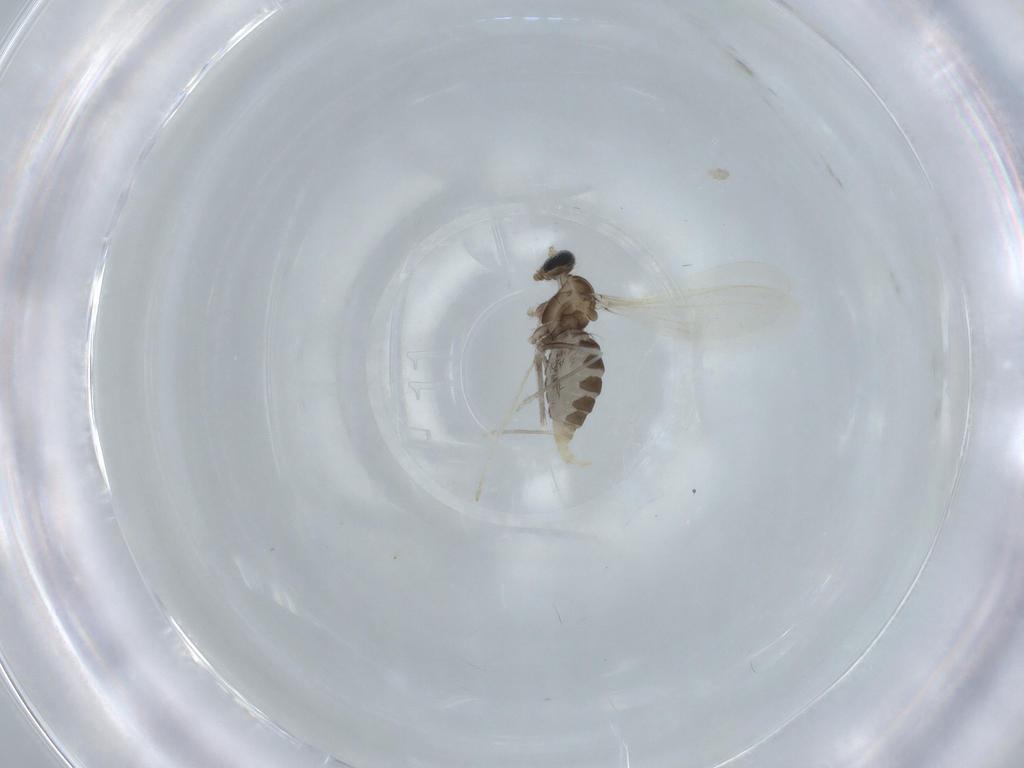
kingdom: Animalia
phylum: Arthropoda
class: Insecta
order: Diptera
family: Cecidomyiidae
